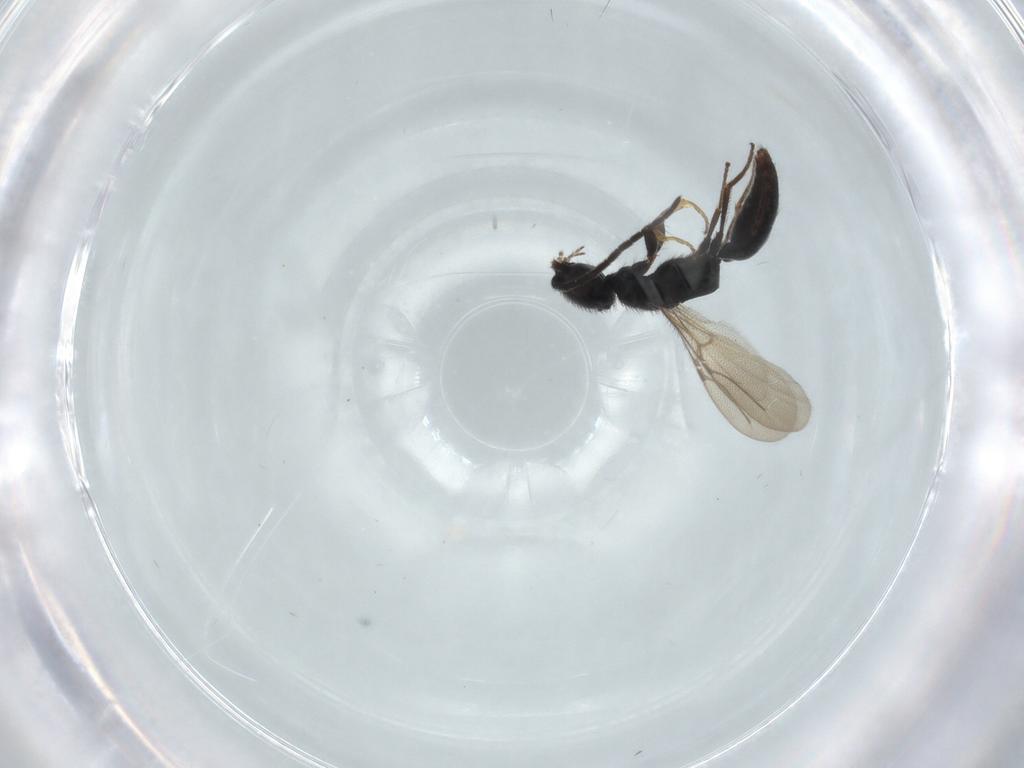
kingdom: Animalia
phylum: Arthropoda
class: Insecta
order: Hymenoptera
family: Bethylidae
